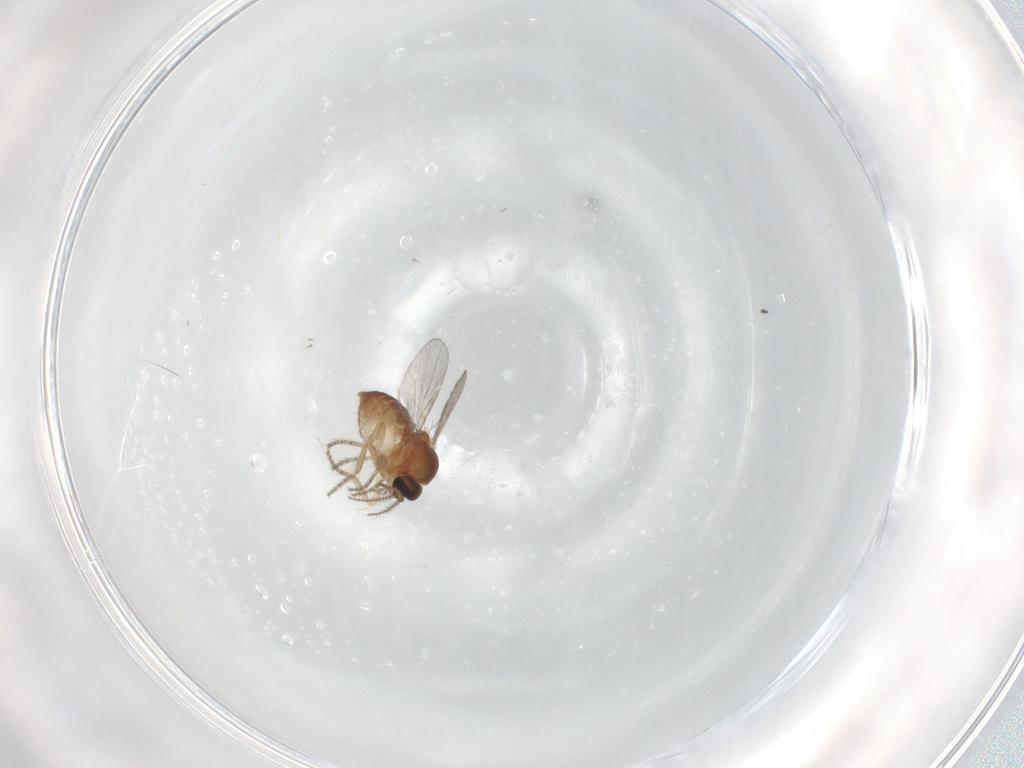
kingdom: Animalia
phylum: Arthropoda
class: Insecta
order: Diptera
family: Ceratopogonidae
